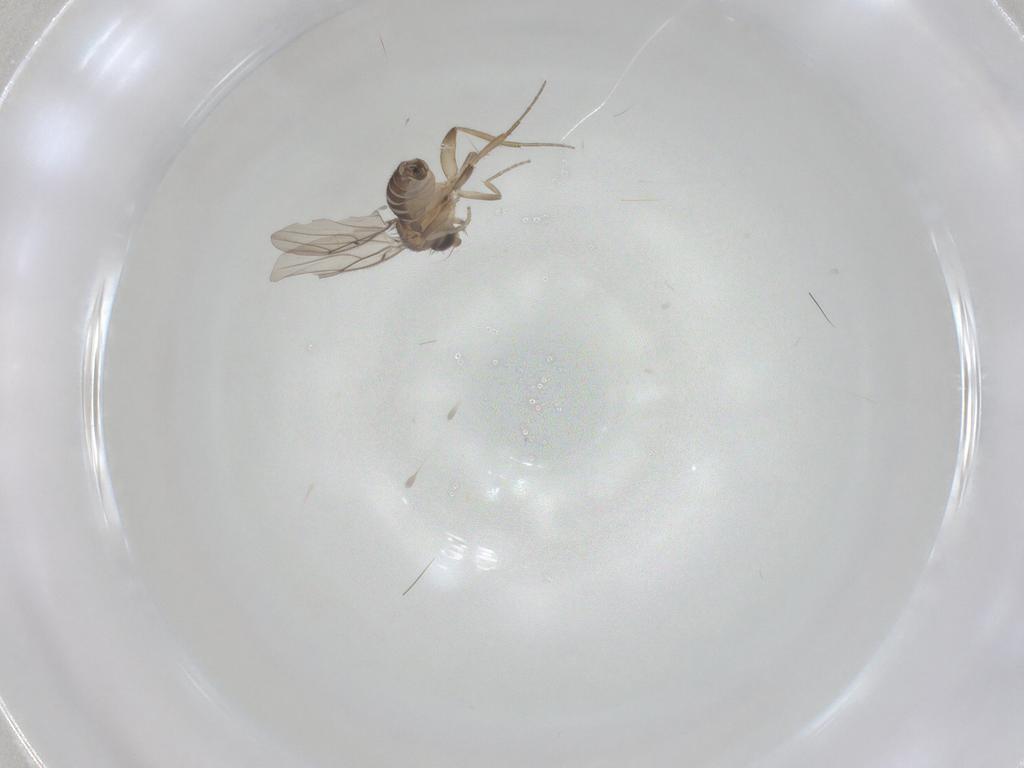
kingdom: Animalia
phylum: Arthropoda
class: Insecta
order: Diptera
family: Phoridae
